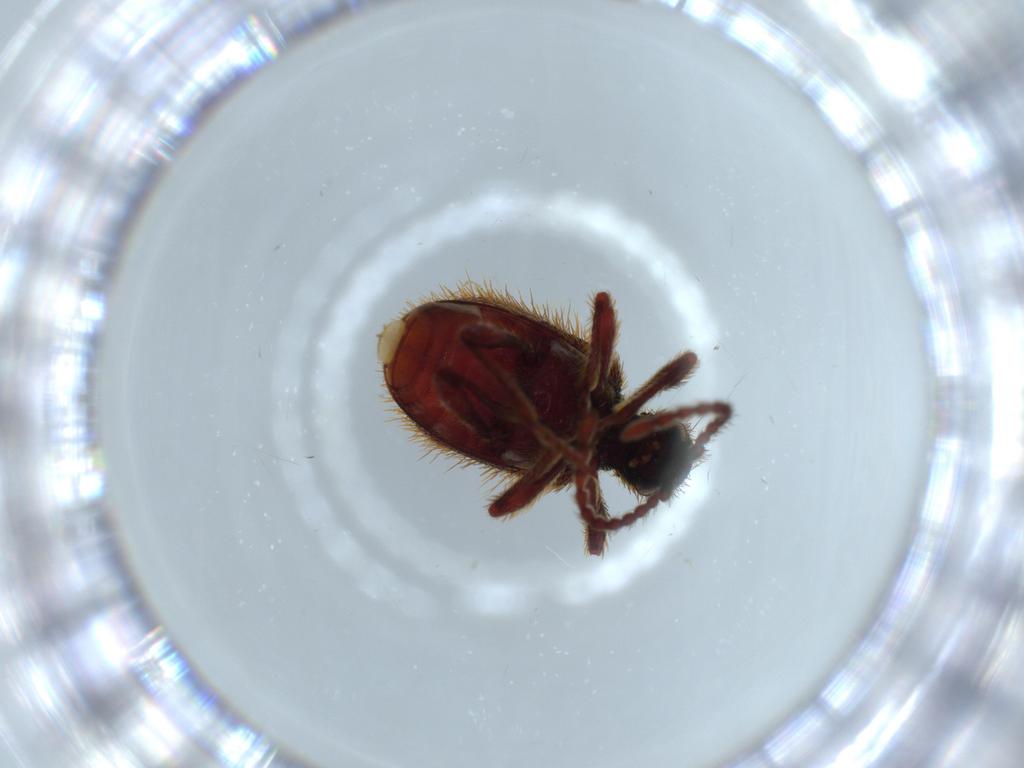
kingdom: Animalia
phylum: Arthropoda
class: Insecta
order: Coleoptera
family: Ptinidae
